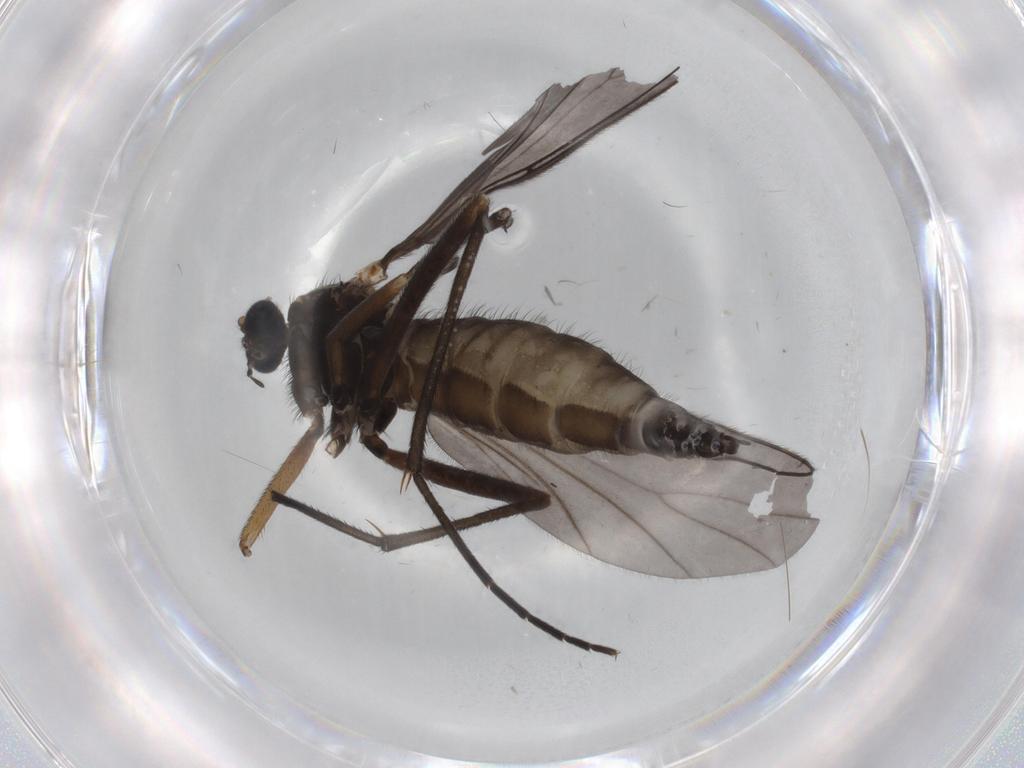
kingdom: Animalia
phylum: Arthropoda
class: Insecta
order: Diptera
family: Sciaridae
